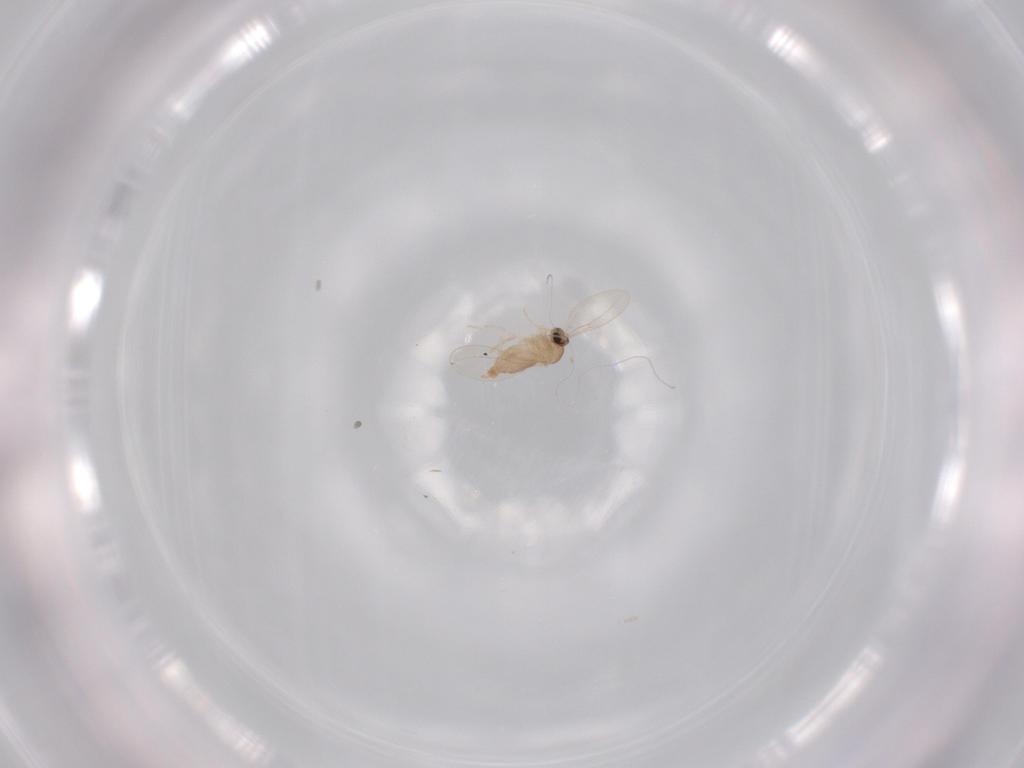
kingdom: Animalia
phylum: Arthropoda
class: Insecta
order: Diptera
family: Cecidomyiidae
